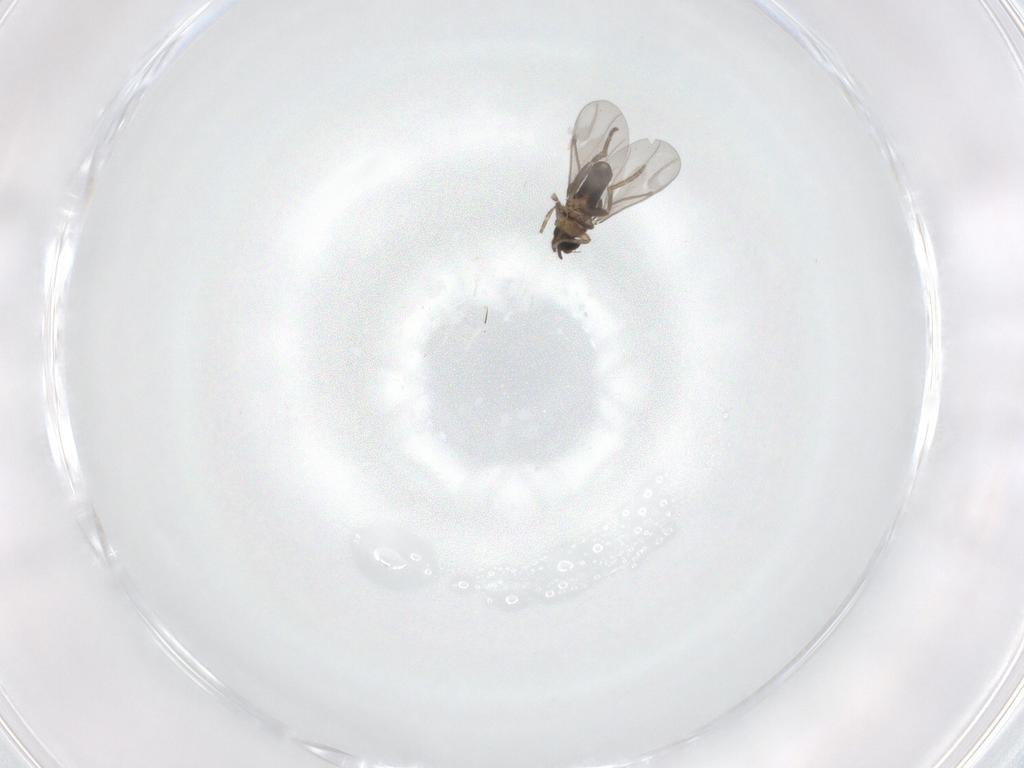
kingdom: Animalia
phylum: Arthropoda
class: Insecta
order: Diptera
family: Phoridae
